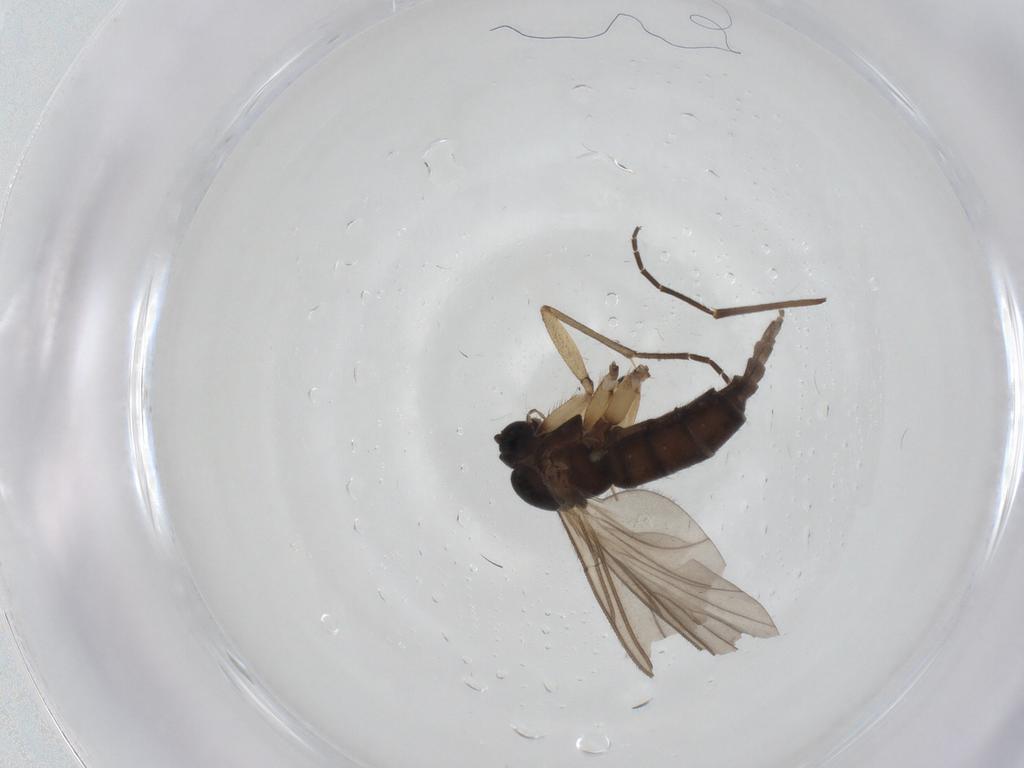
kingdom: Animalia
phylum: Arthropoda
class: Insecta
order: Diptera
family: Sciaridae
